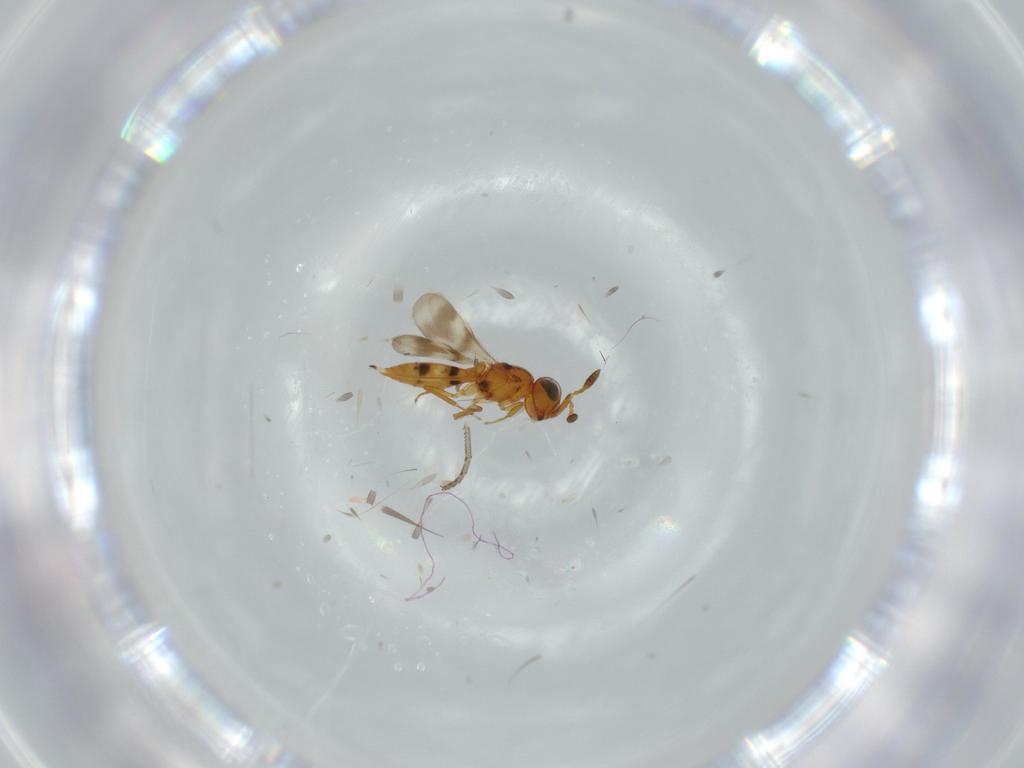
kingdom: Animalia
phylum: Arthropoda
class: Insecta
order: Hymenoptera
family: Scelionidae
